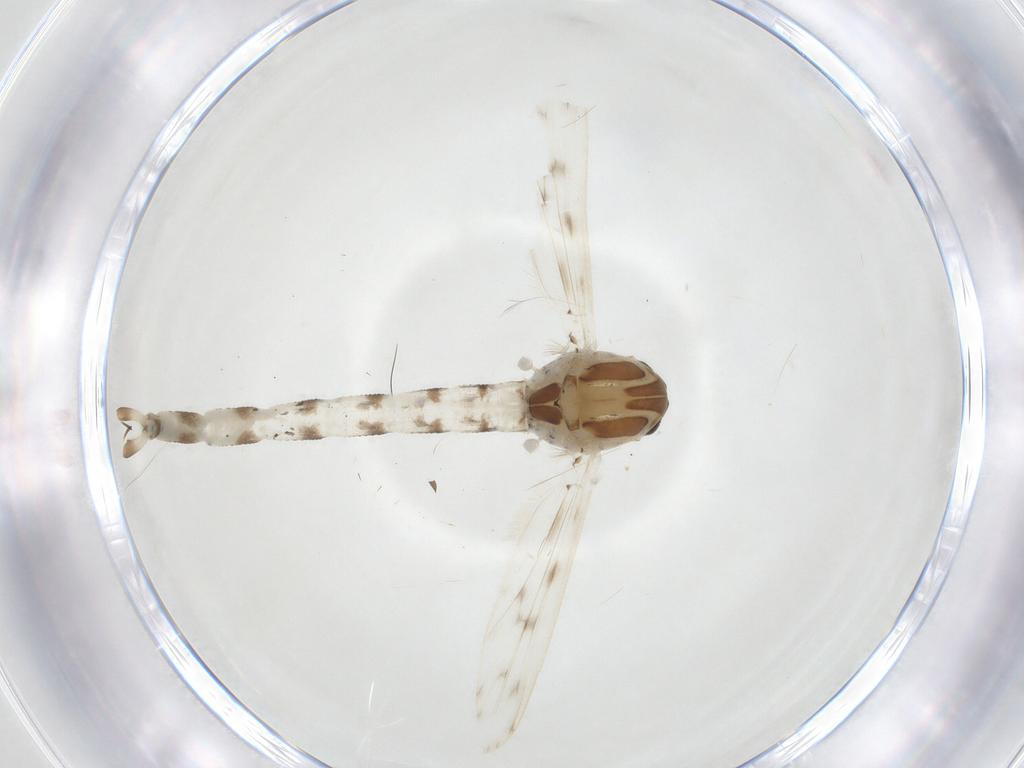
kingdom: Animalia
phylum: Arthropoda
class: Insecta
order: Diptera
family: Chaoboridae
